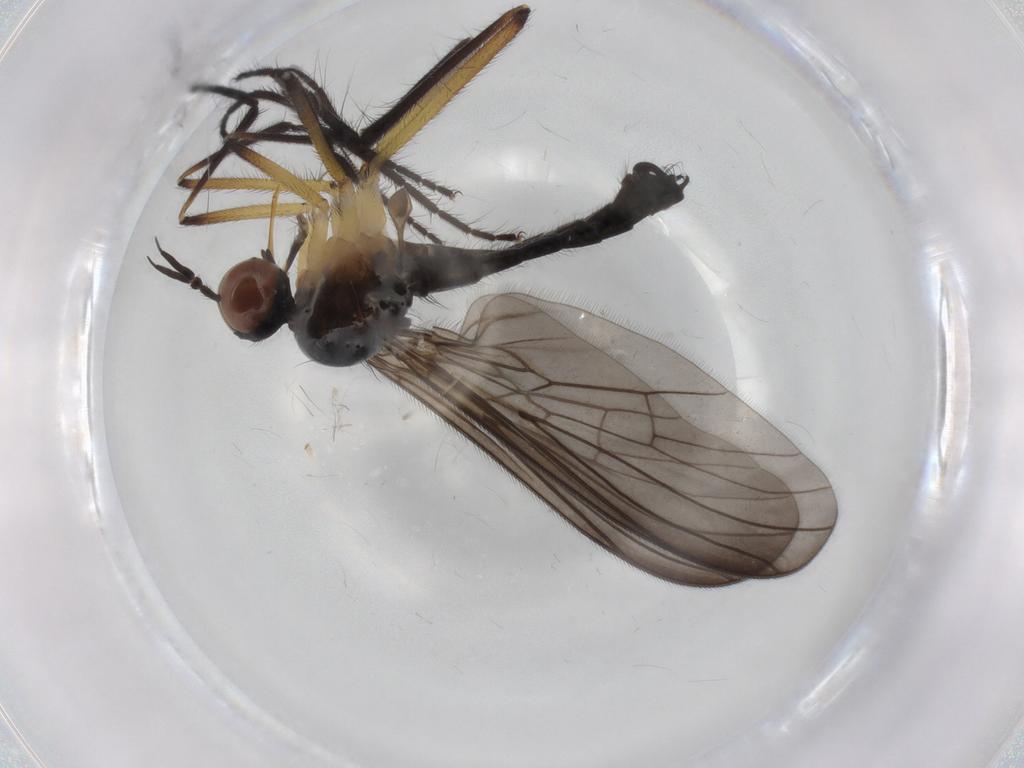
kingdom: Animalia
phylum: Arthropoda
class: Insecta
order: Diptera
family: Empididae
